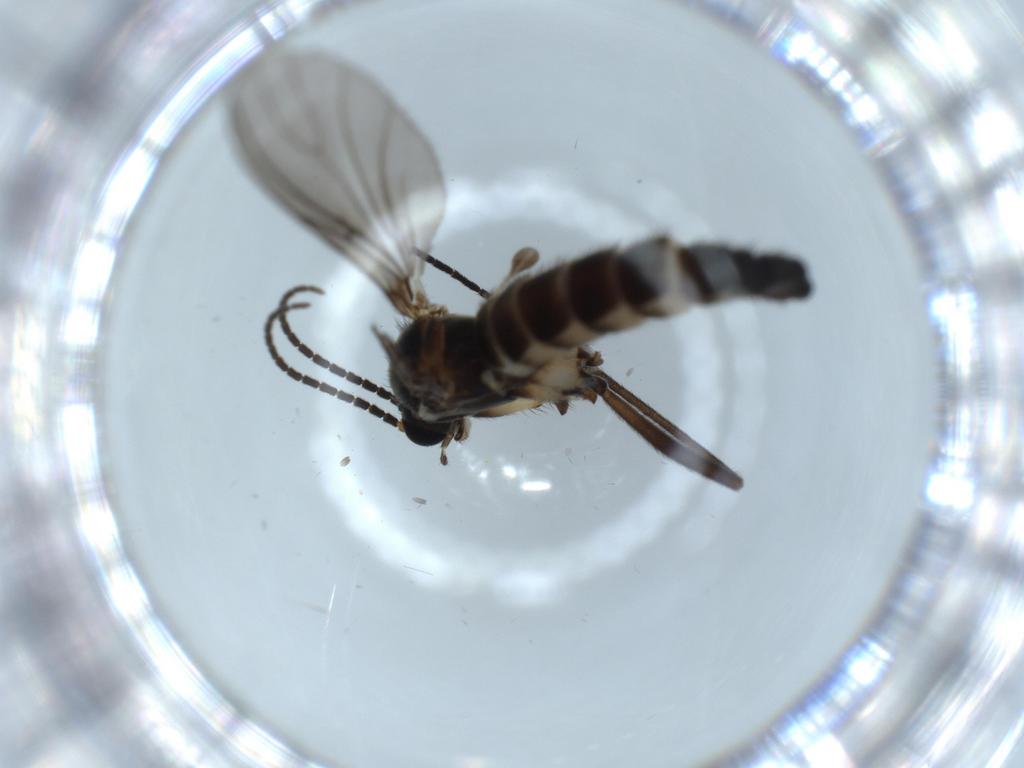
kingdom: Animalia
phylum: Arthropoda
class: Insecta
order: Diptera
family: Sciaridae
